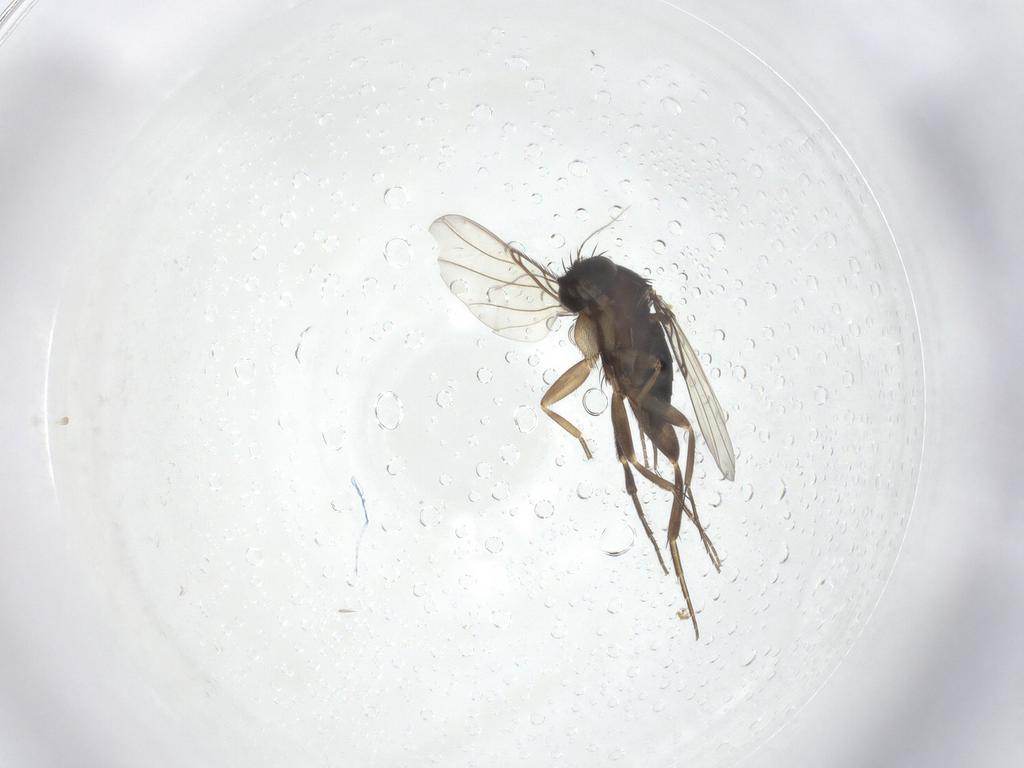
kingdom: Animalia
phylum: Arthropoda
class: Insecta
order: Diptera
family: Phoridae
